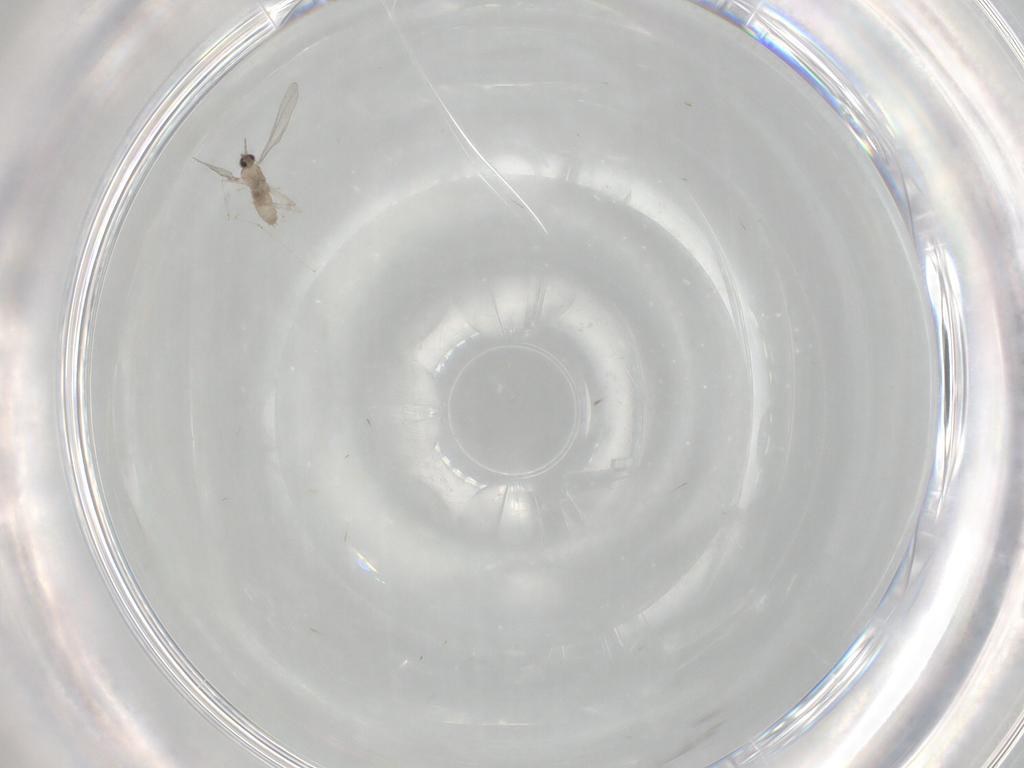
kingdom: Animalia
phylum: Arthropoda
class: Insecta
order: Diptera
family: Cecidomyiidae
